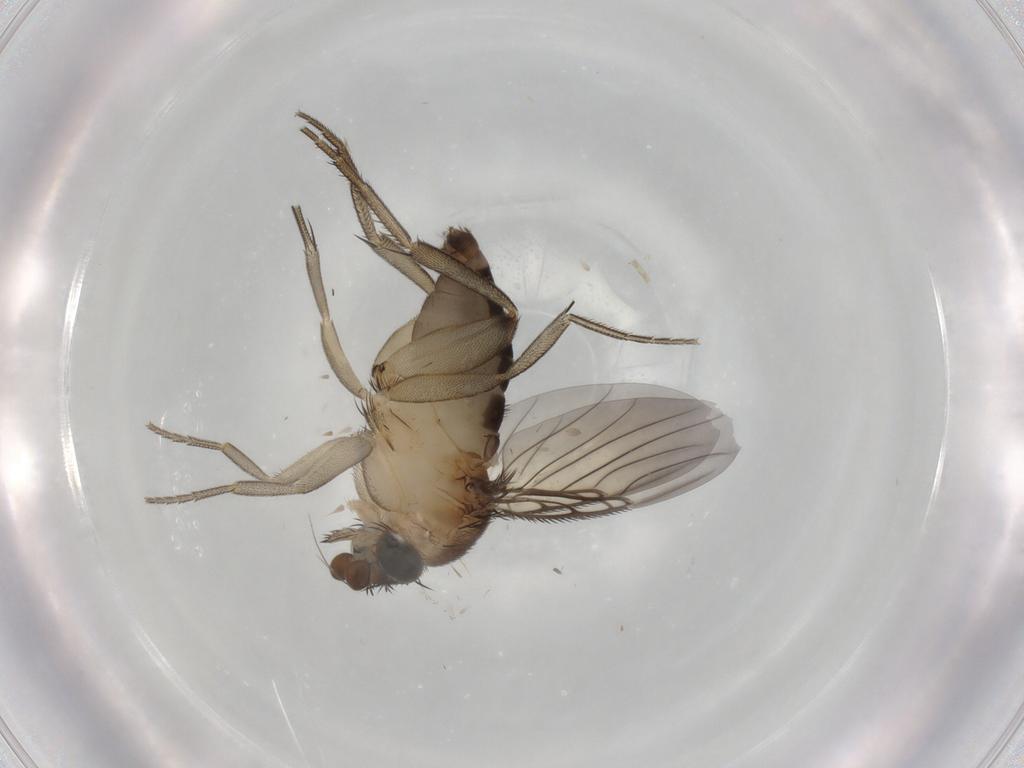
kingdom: Animalia
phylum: Arthropoda
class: Insecta
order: Diptera
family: Phoridae
